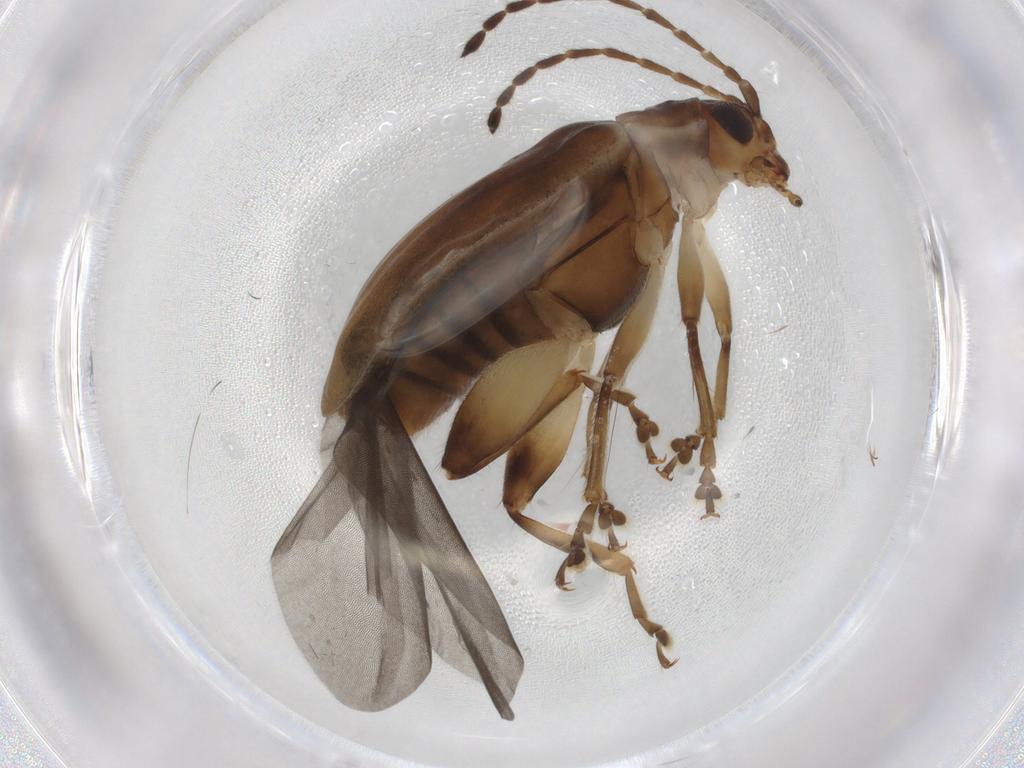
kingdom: Animalia
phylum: Arthropoda
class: Insecta
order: Coleoptera
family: Chrysomelidae
